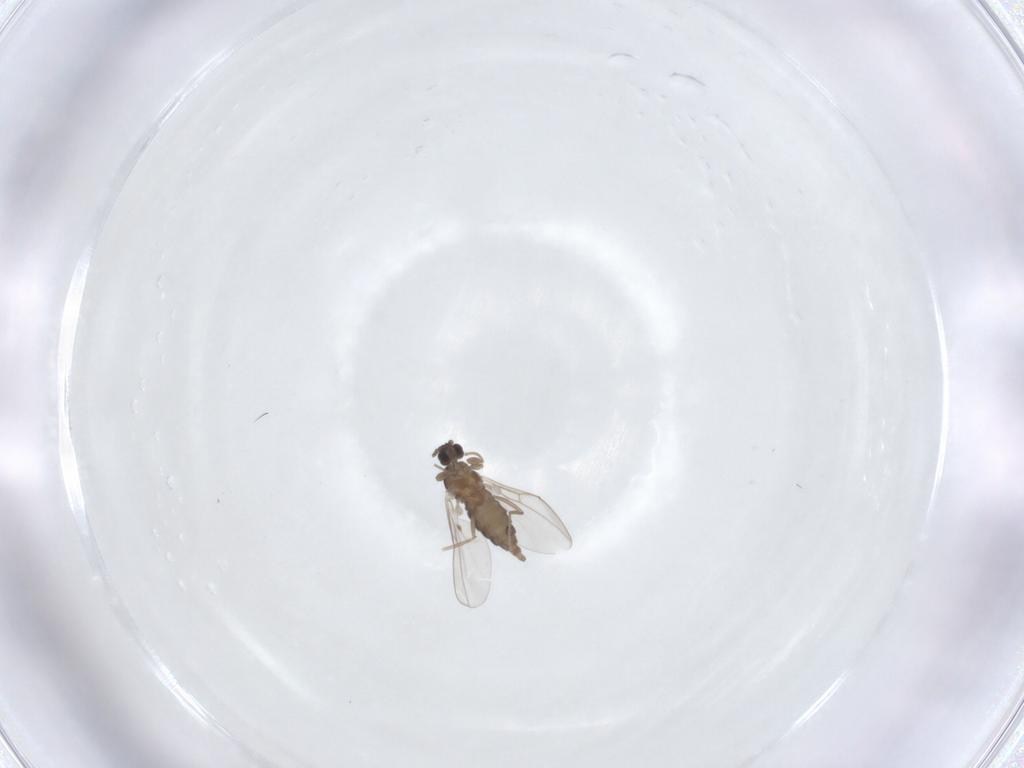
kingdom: Animalia
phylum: Arthropoda
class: Insecta
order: Diptera
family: Cecidomyiidae
